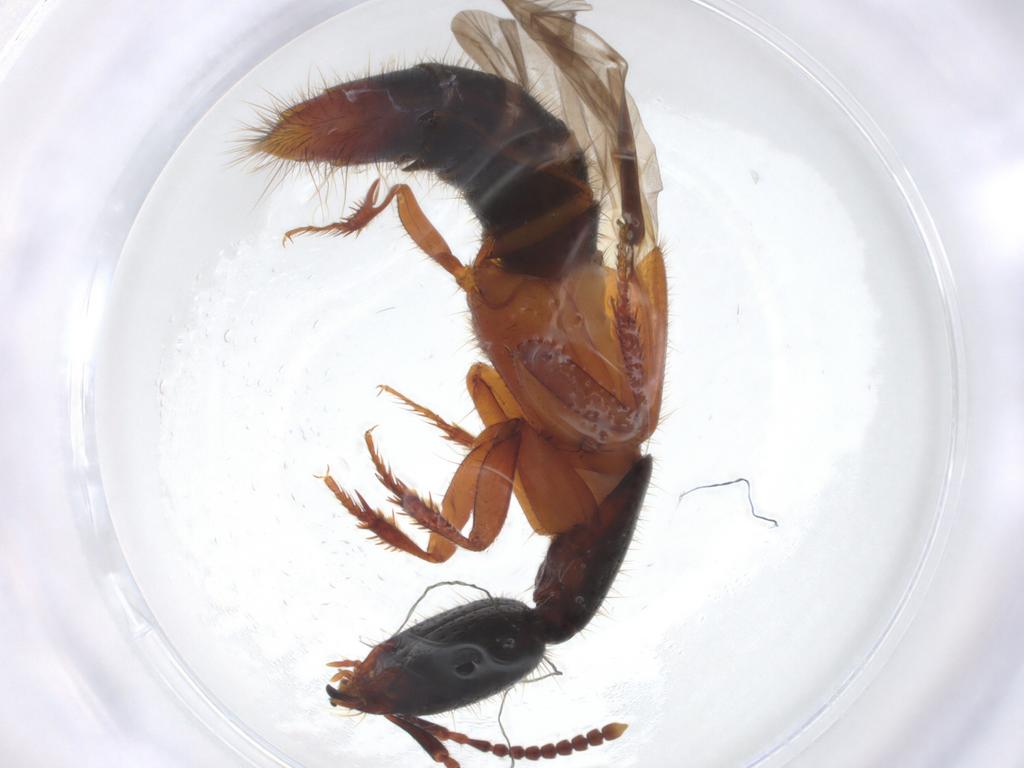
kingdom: Animalia
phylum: Arthropoda
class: Insecta
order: Coleoptera
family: Staphylinidae
